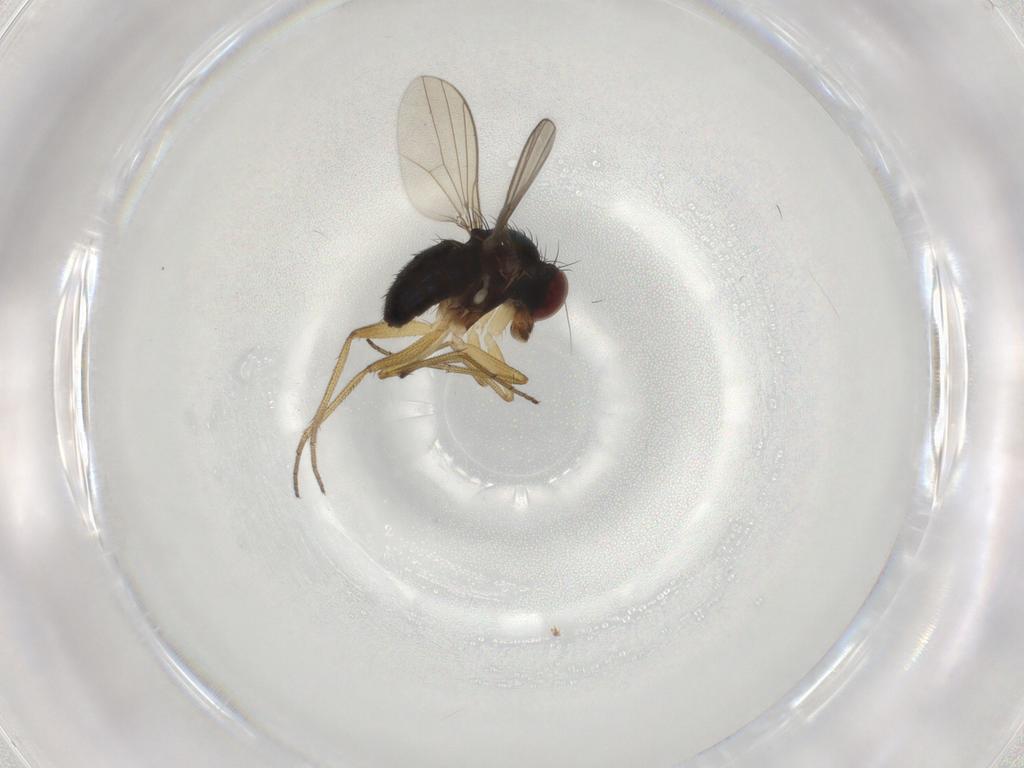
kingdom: Animalia
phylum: Arthropoda
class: Insecta
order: Diptera
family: Dolichopodidae
